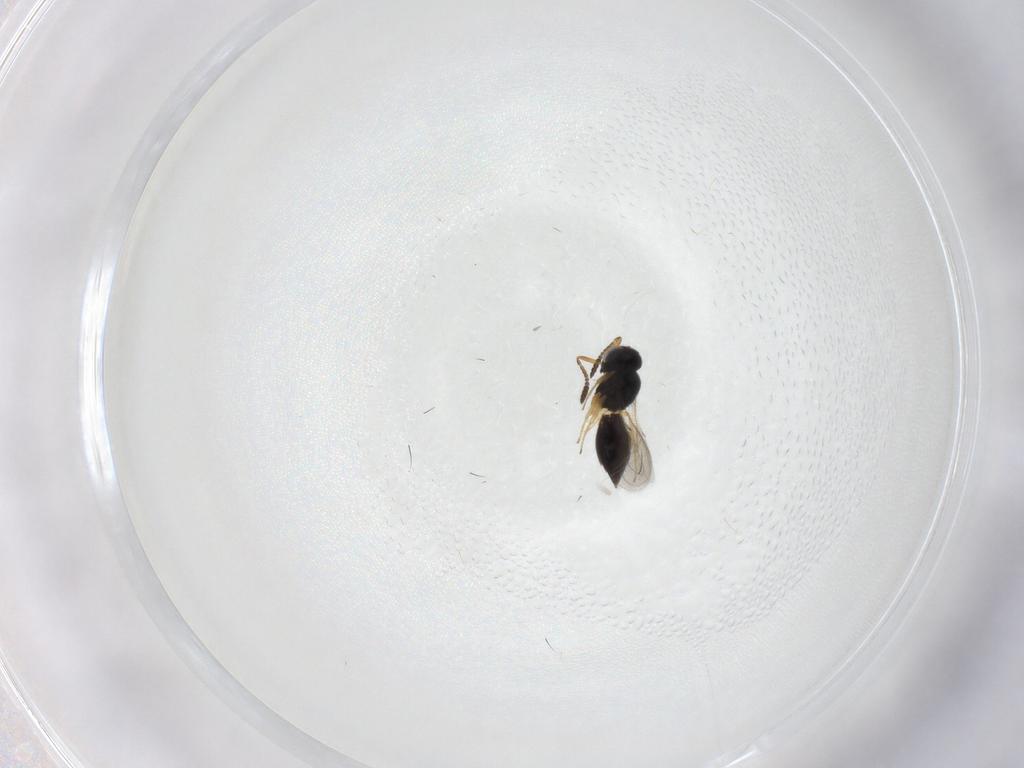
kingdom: Animalia
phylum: Arthropoda
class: Insecta
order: Hymenoptera
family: Scelionidae
